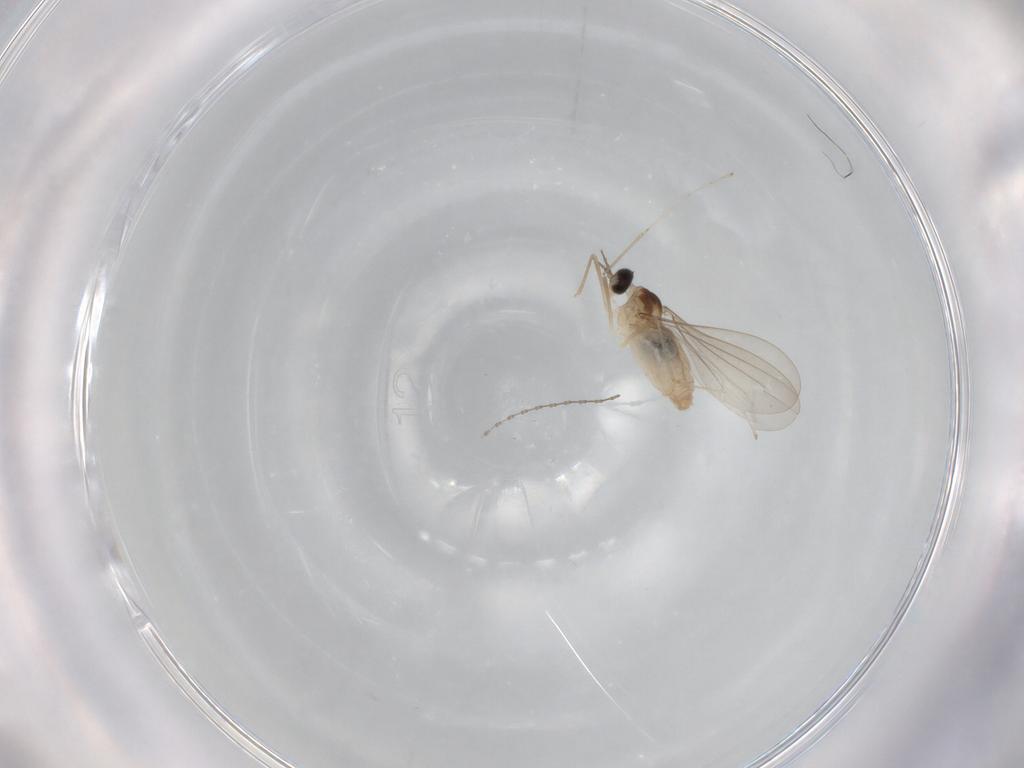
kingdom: Animalia
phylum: Arthropoda
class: Insecta
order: Diptera
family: Cecidomyiidae
